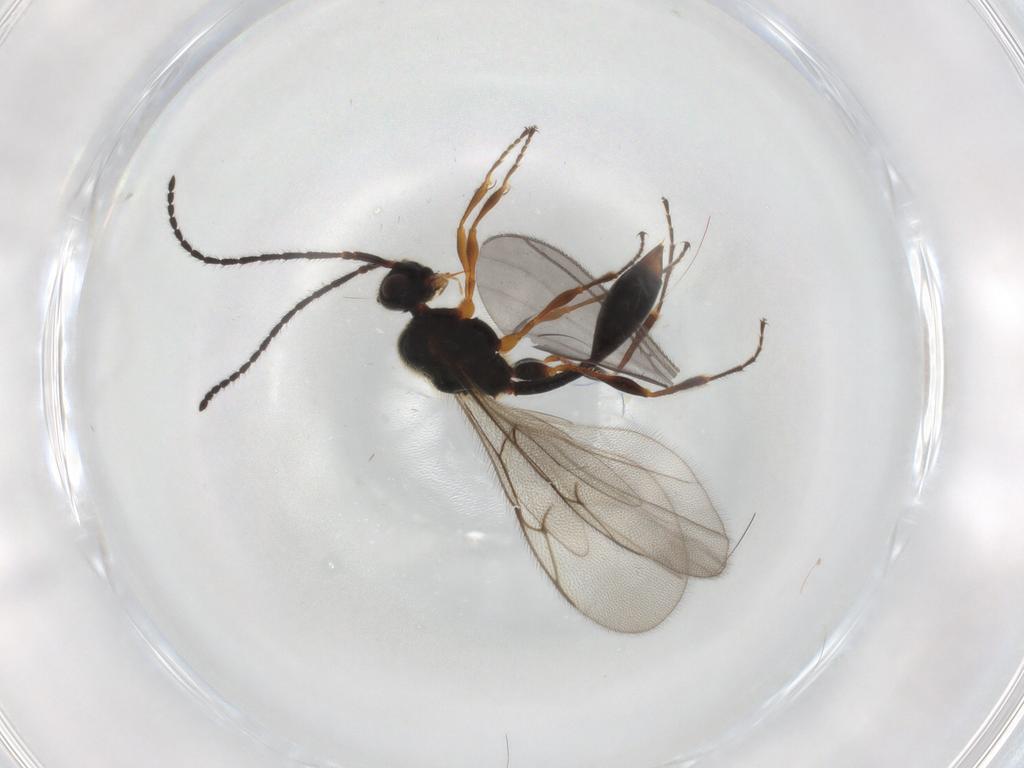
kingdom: Animalia
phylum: Arthropoda
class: Insecta
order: Hymenoptera
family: Diapriidae
